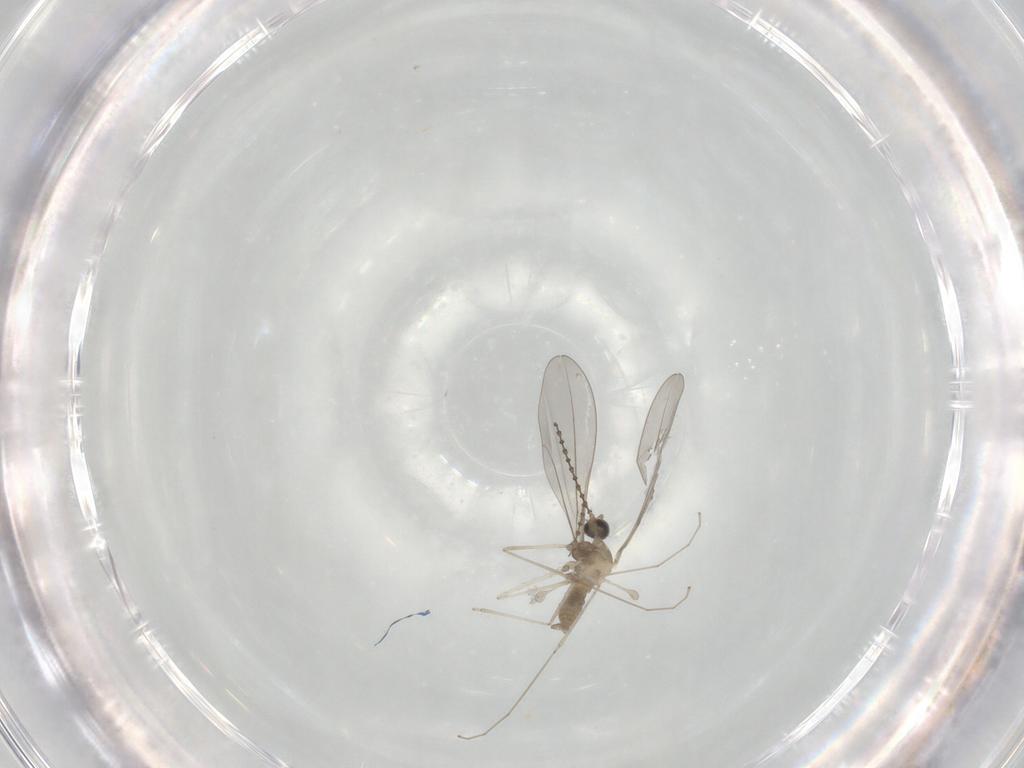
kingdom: Animalia
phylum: Arthropoda
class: Insecta
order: Diptera
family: Cecidomyiidae
